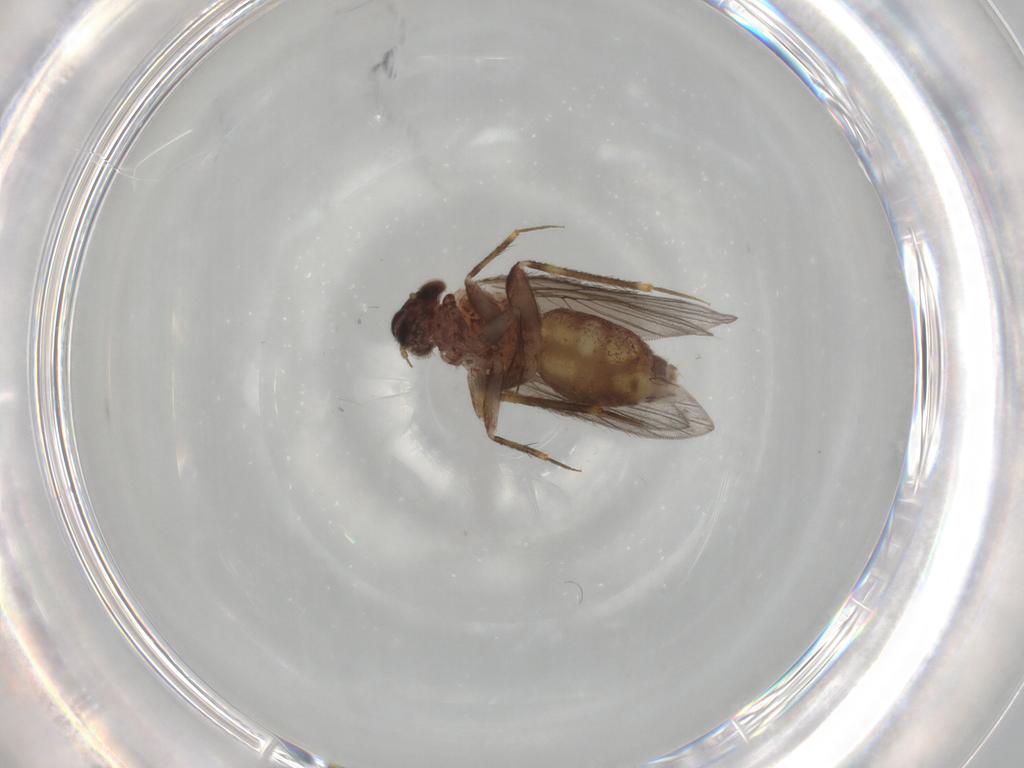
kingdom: Animalia
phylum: Arthropoda
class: Insecta
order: Psocodea
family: Lepidopsocidae
